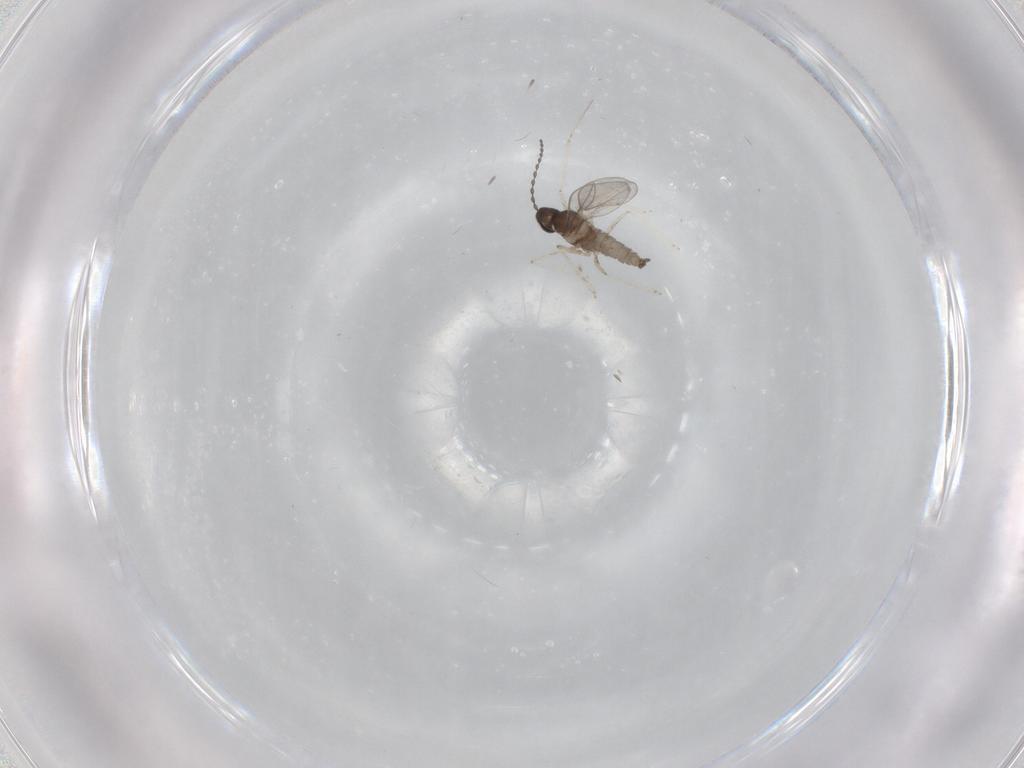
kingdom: Animalia
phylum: Arthropoda
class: Insecta
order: Diptera
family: Cecidomyiidae
